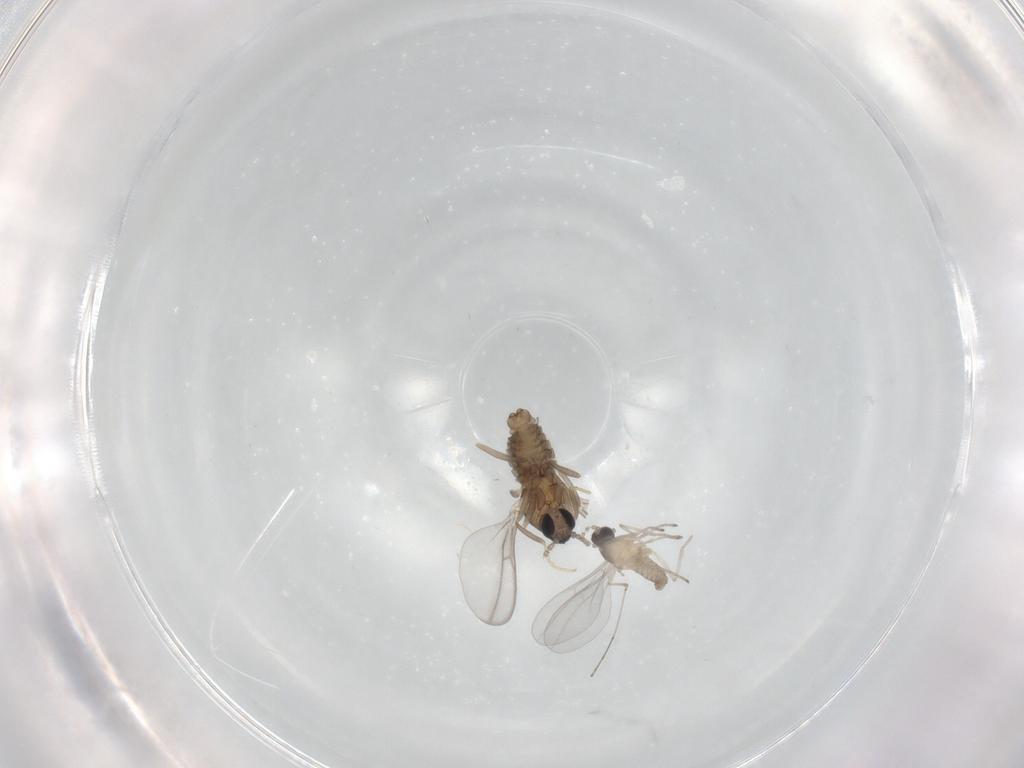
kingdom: Animalia
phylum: Arthropoda
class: Insecta
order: Diptera
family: Cecidomyiidae
